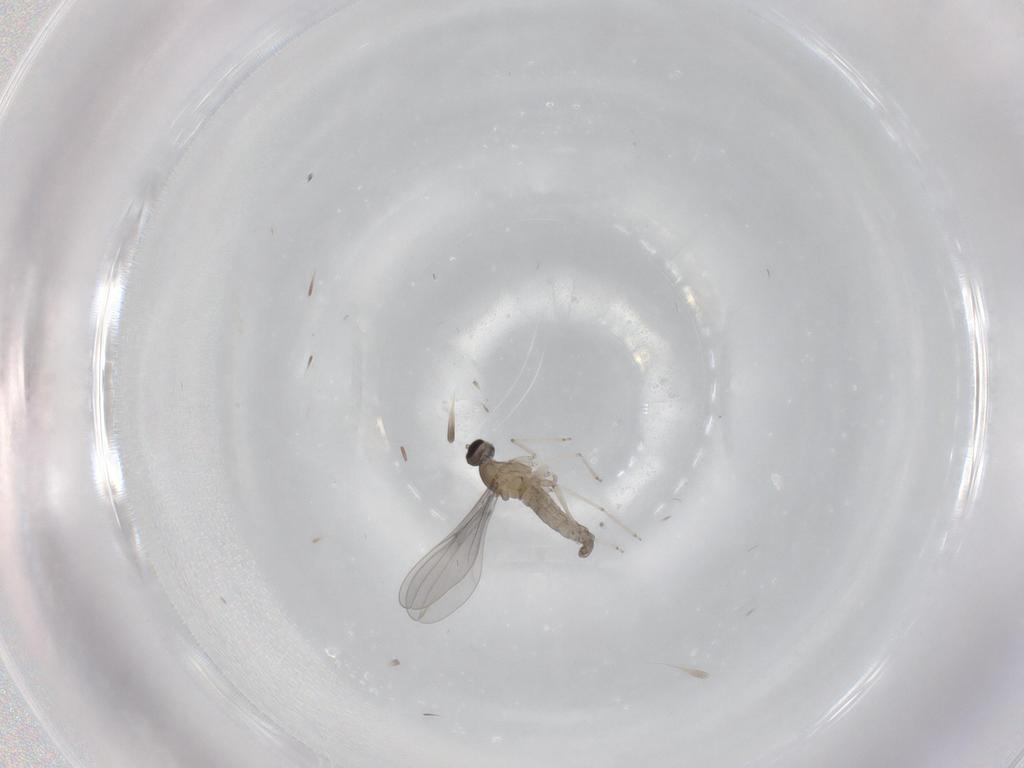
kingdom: Animalia
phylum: Arthropoda
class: Insecta
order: Diptera
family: Cecidomyiidae
